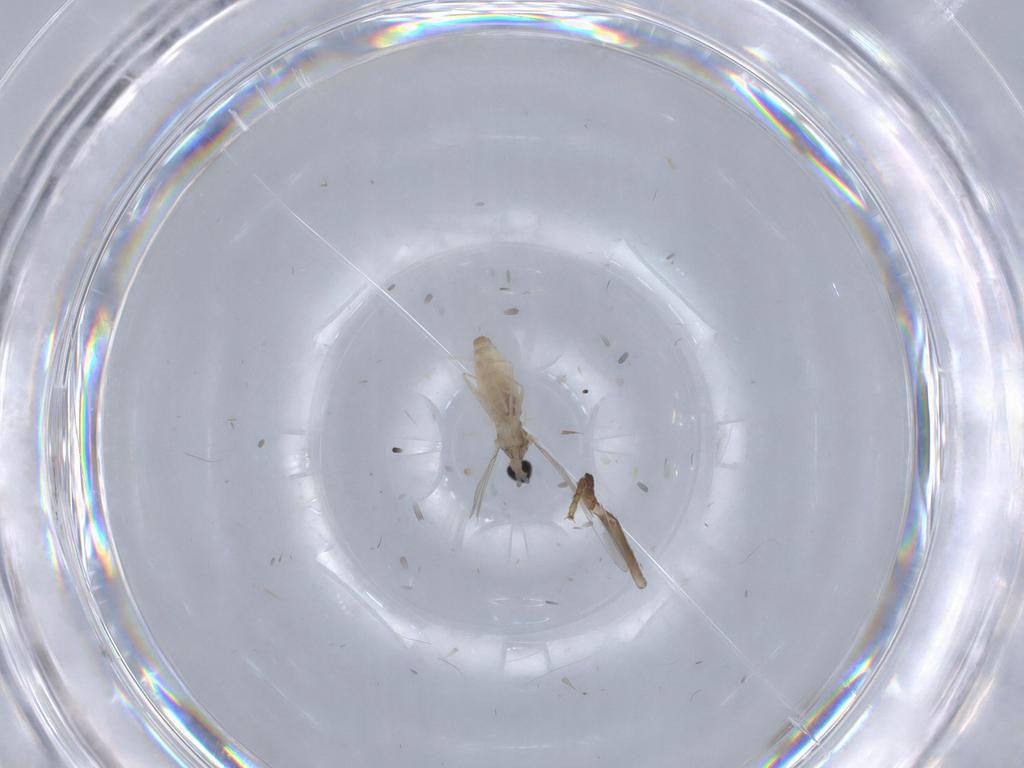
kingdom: Animalia
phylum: Arthropoda
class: Insecta
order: Diptera
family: Cecidomyiidae
